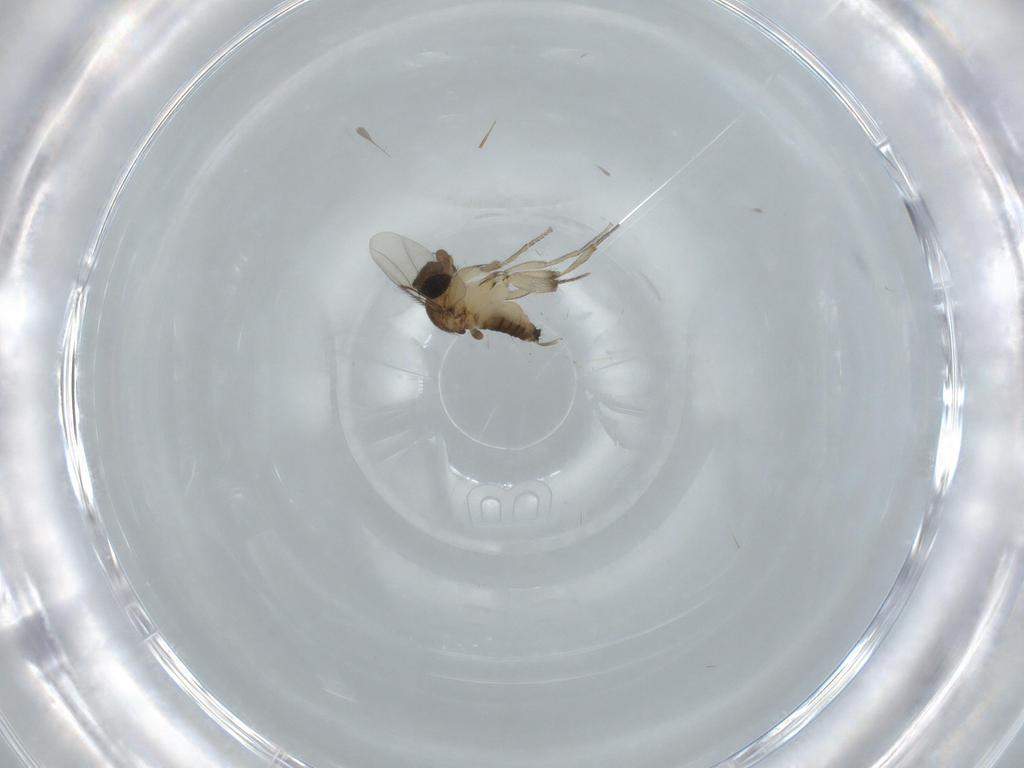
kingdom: Animalia
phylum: Arthropoda
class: Insecta
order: Diptera
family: Cecidomyiidae
